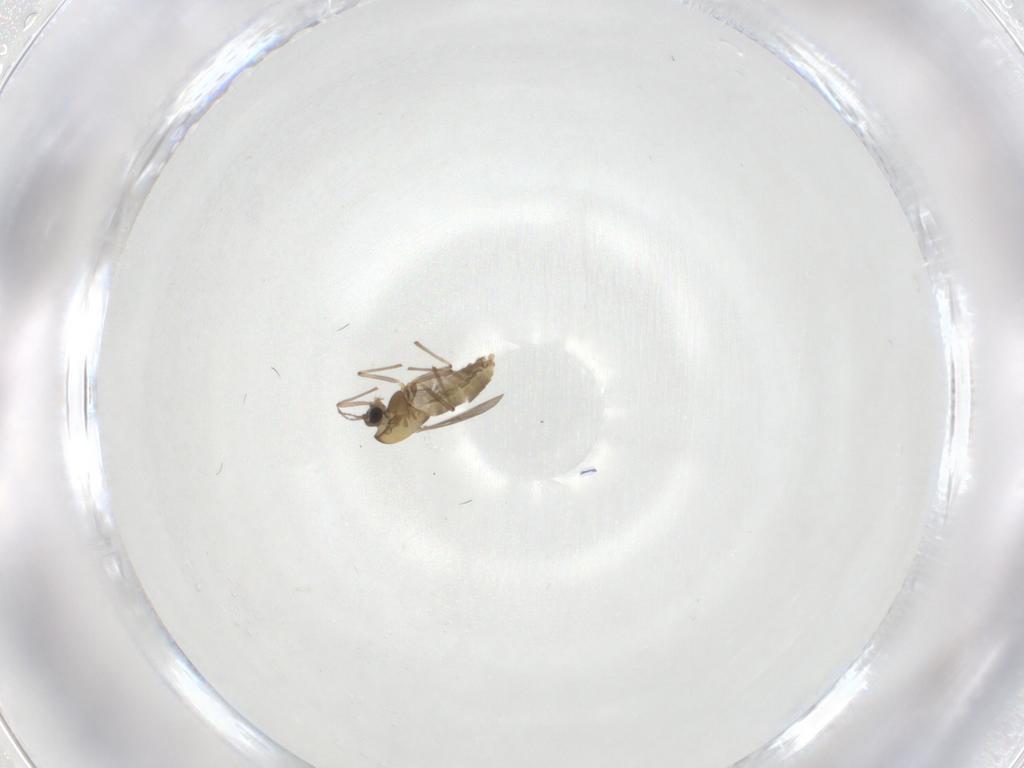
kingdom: Animalia
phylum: Arthropoda
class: Insecta
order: Diptera
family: Chironomidae
